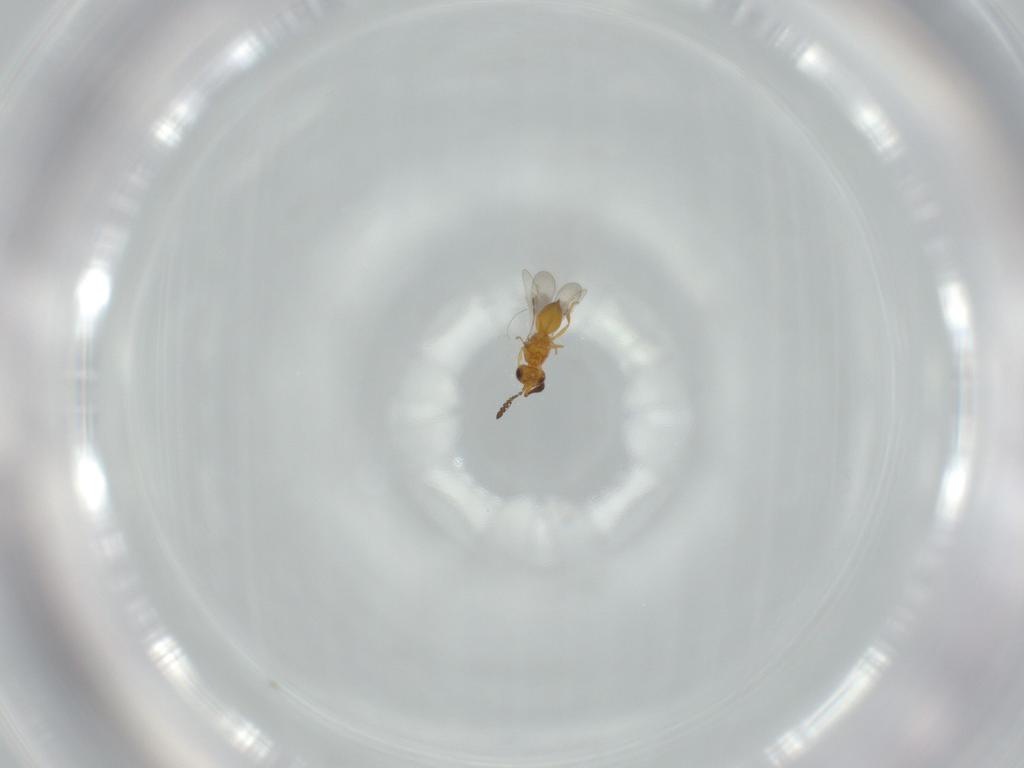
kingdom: Animalia
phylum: Arthropoda
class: Insecta
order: Hymenoptera
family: Ceraphronidae
